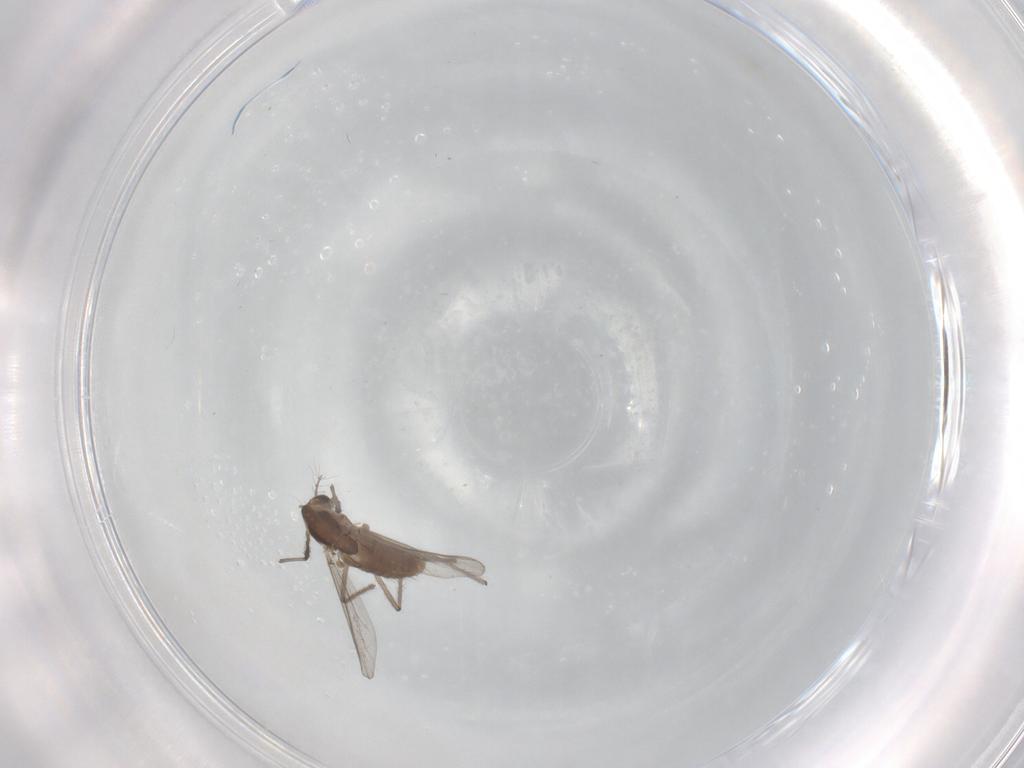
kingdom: Animalia
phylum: Arthropoda
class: Insecta
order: Diptera
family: Chironomidae
